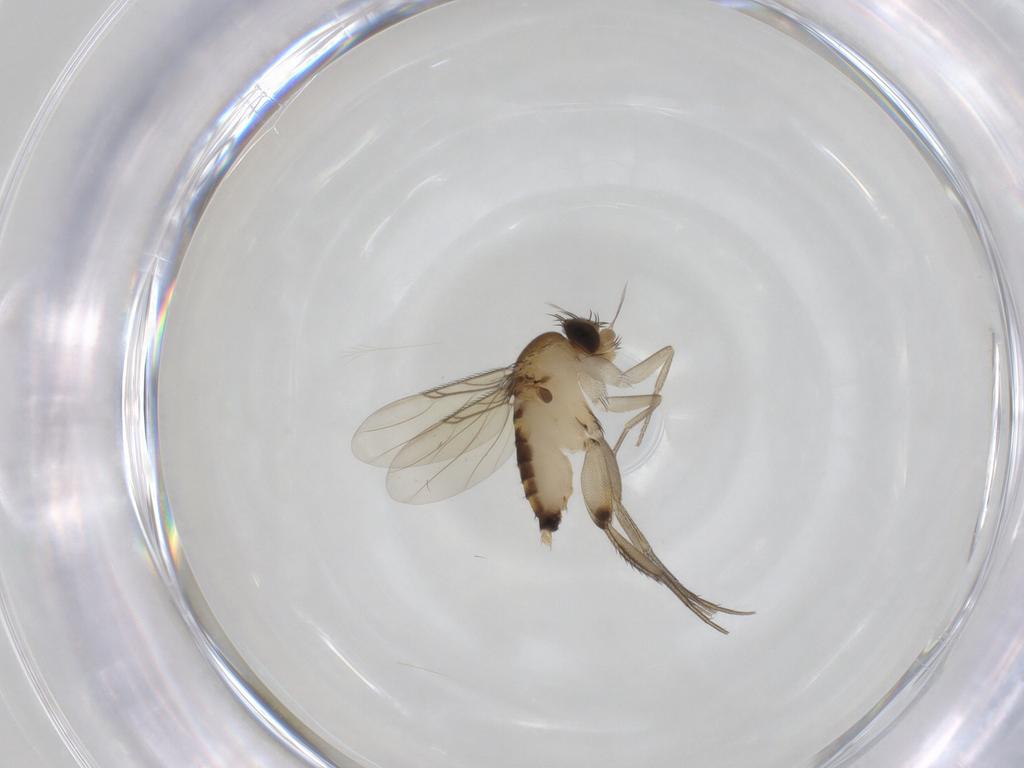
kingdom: Animalia
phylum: Arthropoda
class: Insecta
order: Diptera
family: Phoridae
